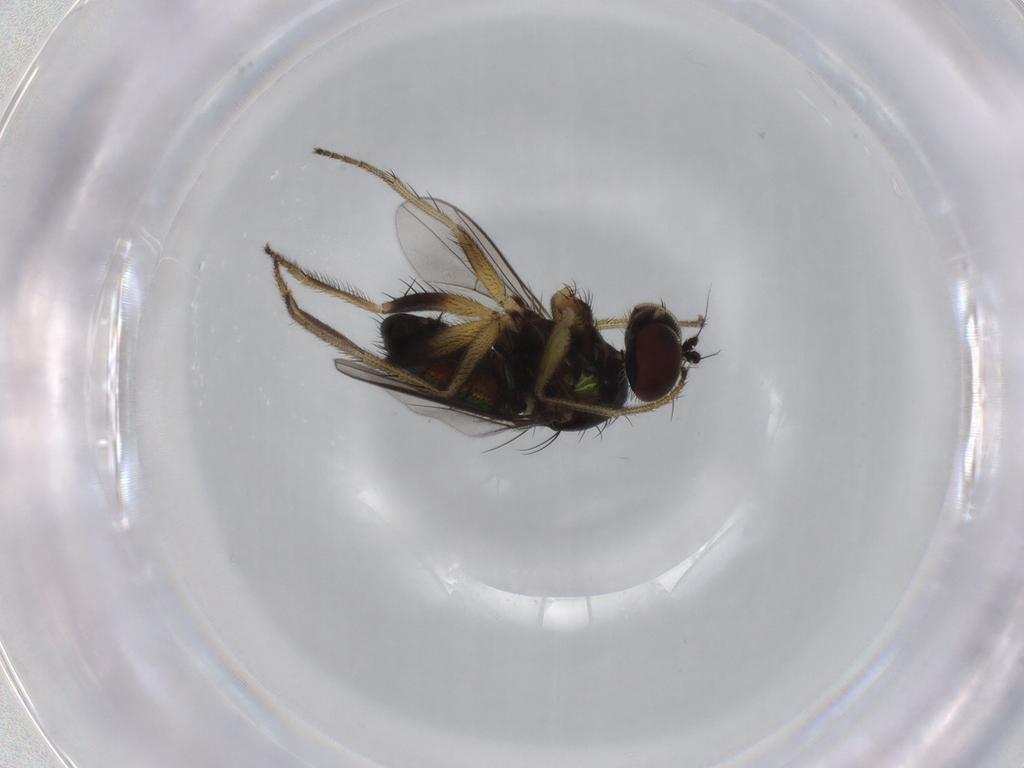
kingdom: Animalia
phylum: Arthropoda
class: Insecta
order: Diptera
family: Dolichopodidae
